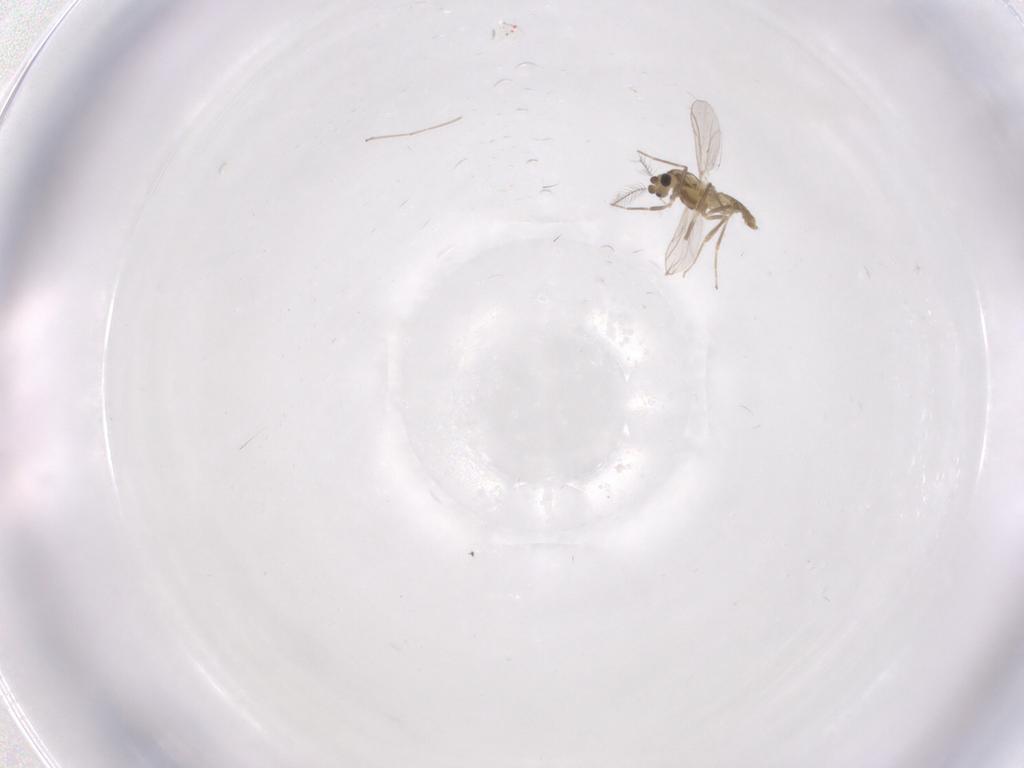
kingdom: Animalia
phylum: Arthropoda
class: Insecta
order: Diptera
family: Cecidomyiidae
